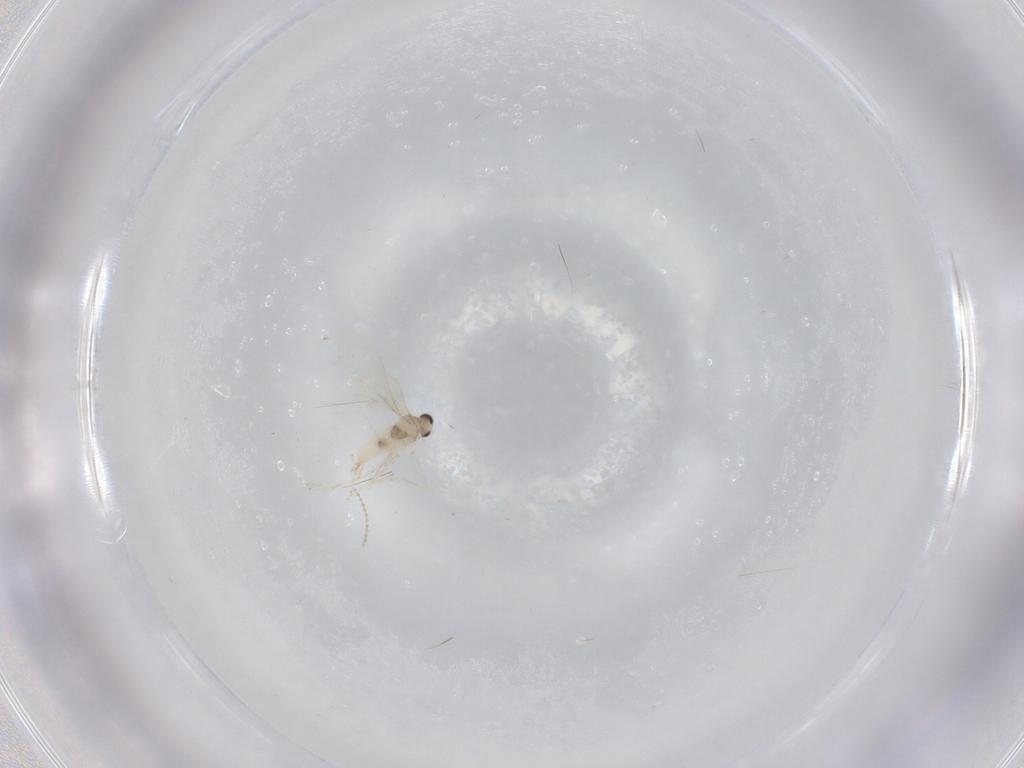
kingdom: Animalia
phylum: Arthropoda
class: Insecta
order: Diptera
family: Cecidomyiidae
